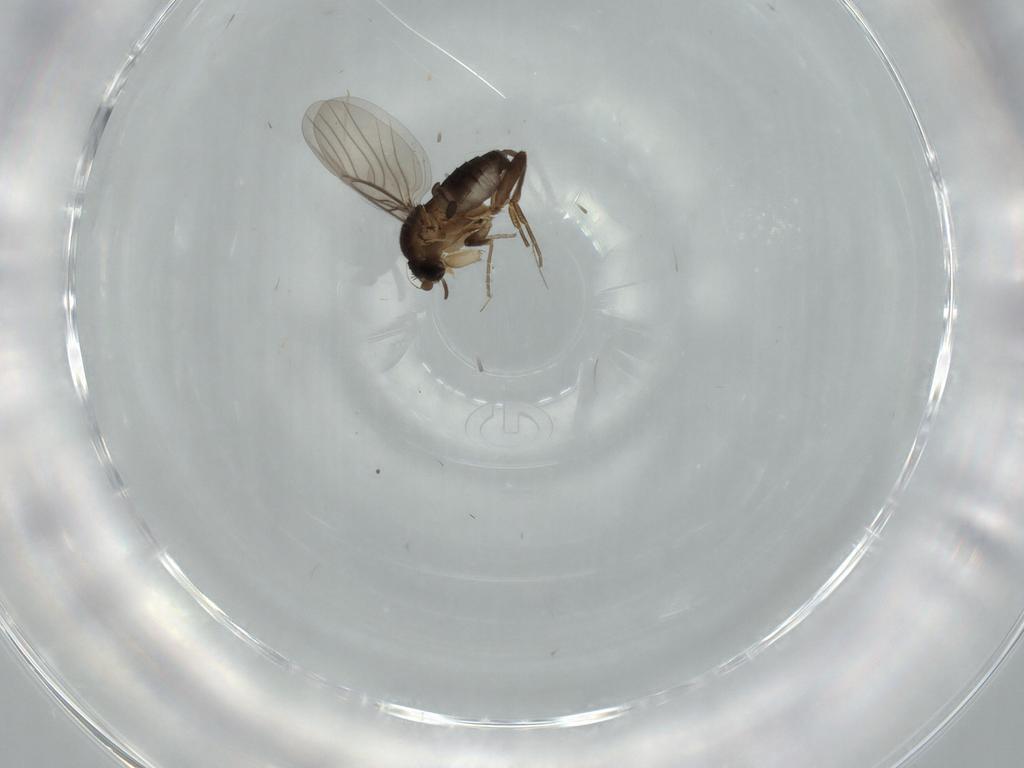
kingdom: Animalia
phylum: Arthropoda
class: Insecta
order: Diptera
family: Phoridae
